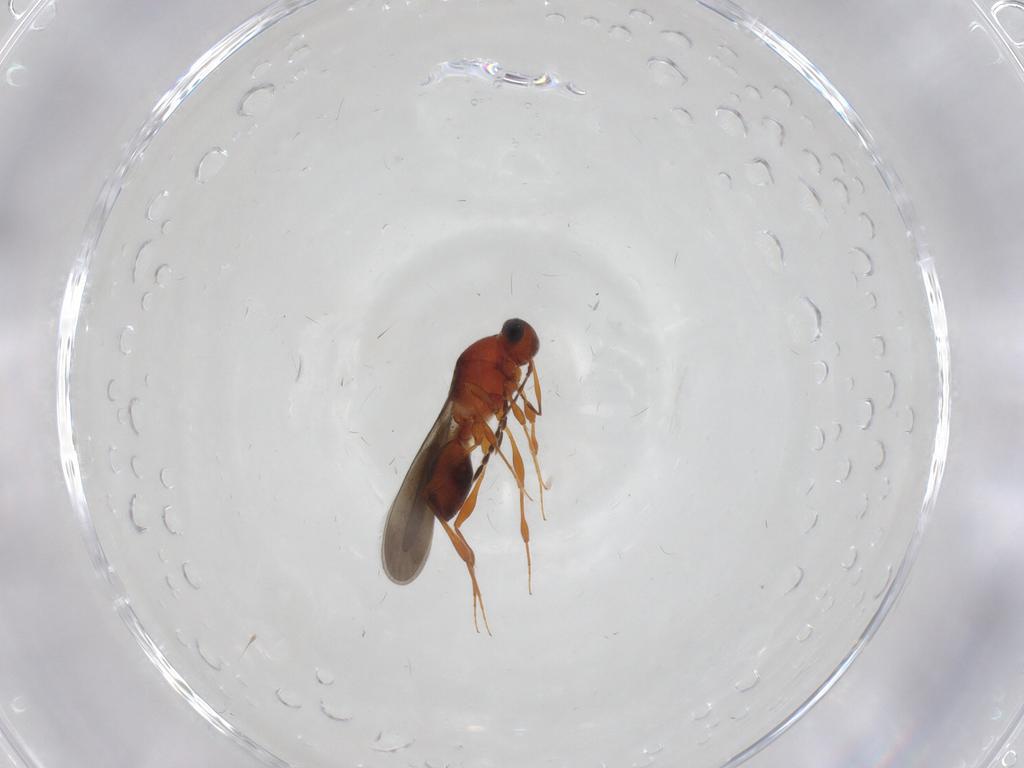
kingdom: Animalia
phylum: Arthropoda
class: Insecta
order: Hymenoptera
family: Platygastridae
